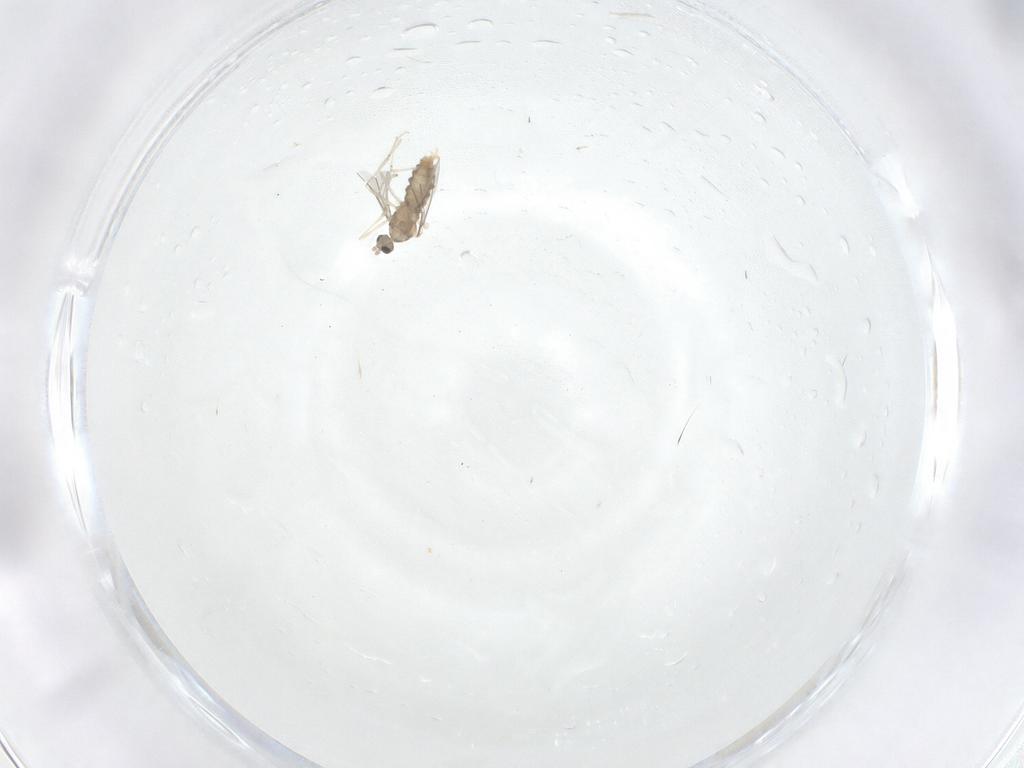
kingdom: Animalia
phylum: Arthropoda
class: Insecta
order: Diptera
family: Cecidomyiidae
